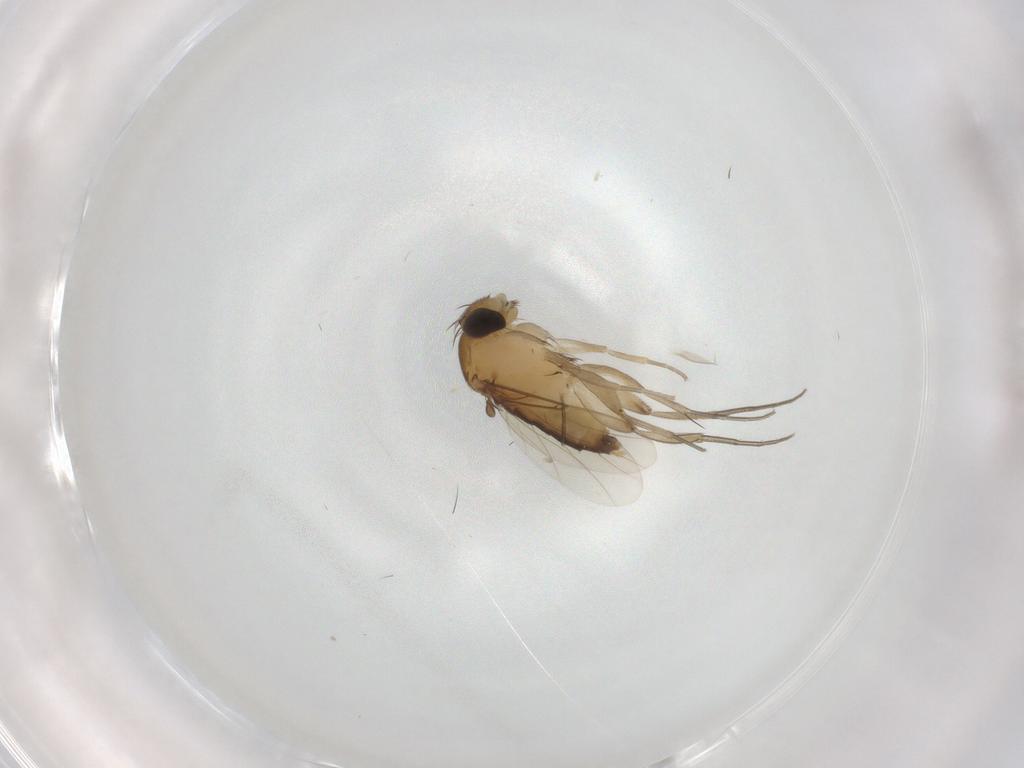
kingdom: Animalia
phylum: Arthropoda
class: Insecta
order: Diptera
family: Phoridae
